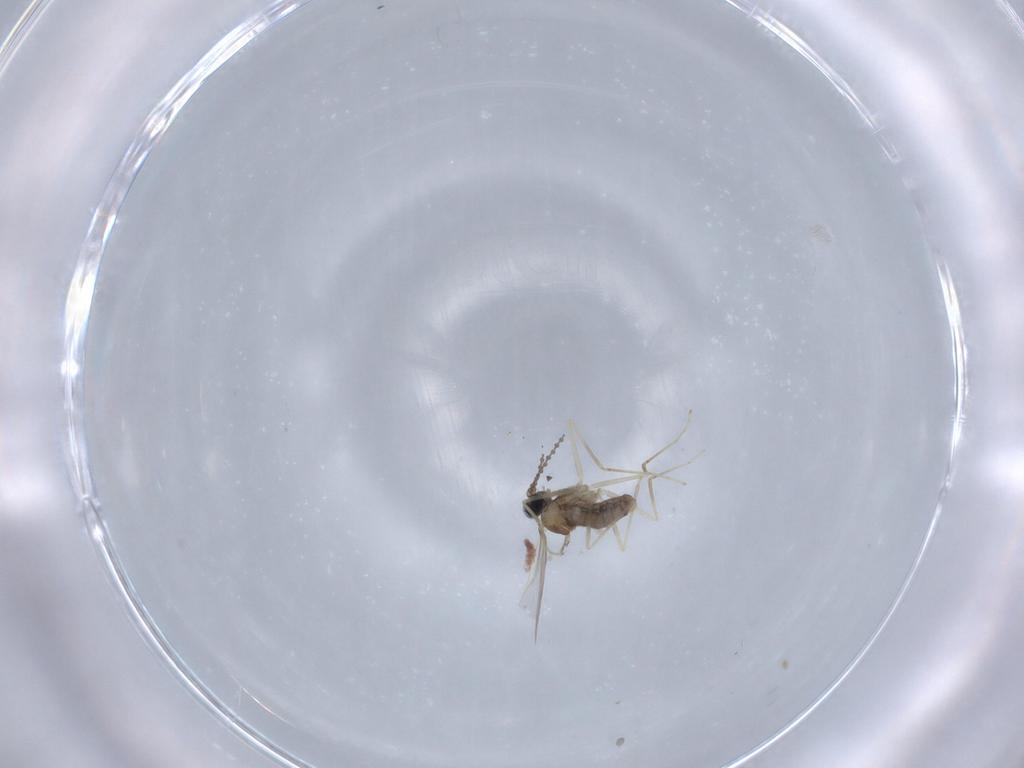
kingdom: Animalia
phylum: Arthropoda
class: Insecta
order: Diptera
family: Cecidomyiidae
